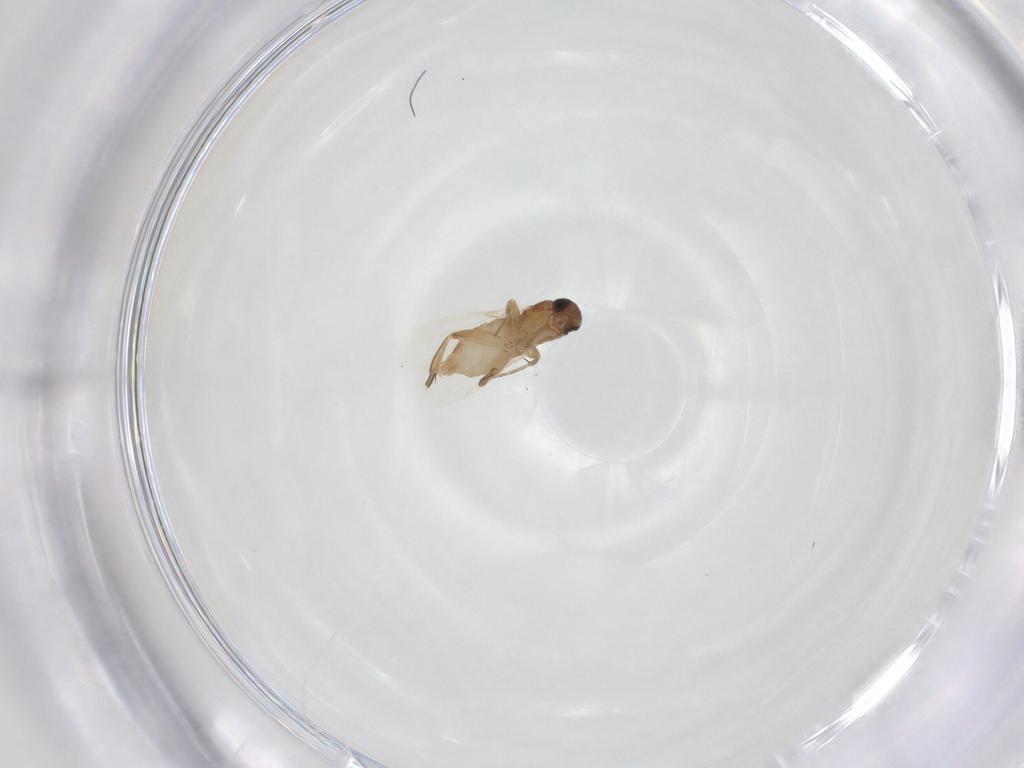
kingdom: Animalia
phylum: Arthropoda
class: Insecta
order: Diptera
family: Phoridae
